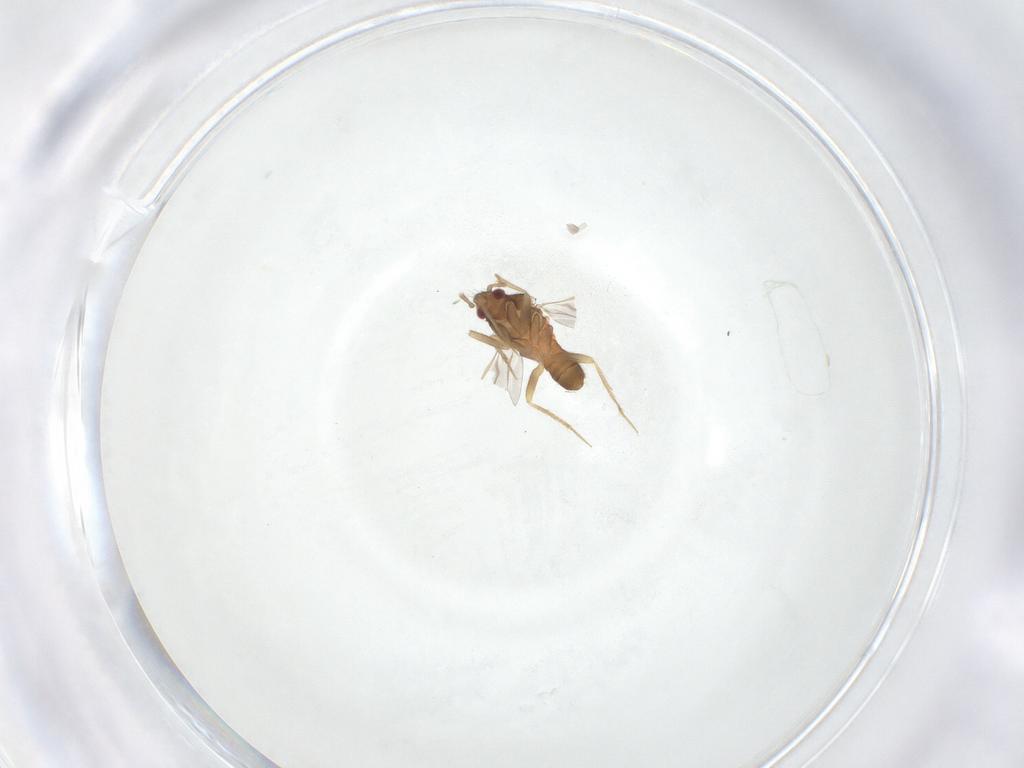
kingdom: Animalia
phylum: Arthropoda
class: Insecta
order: Hemiptera
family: Ceratocombidae
